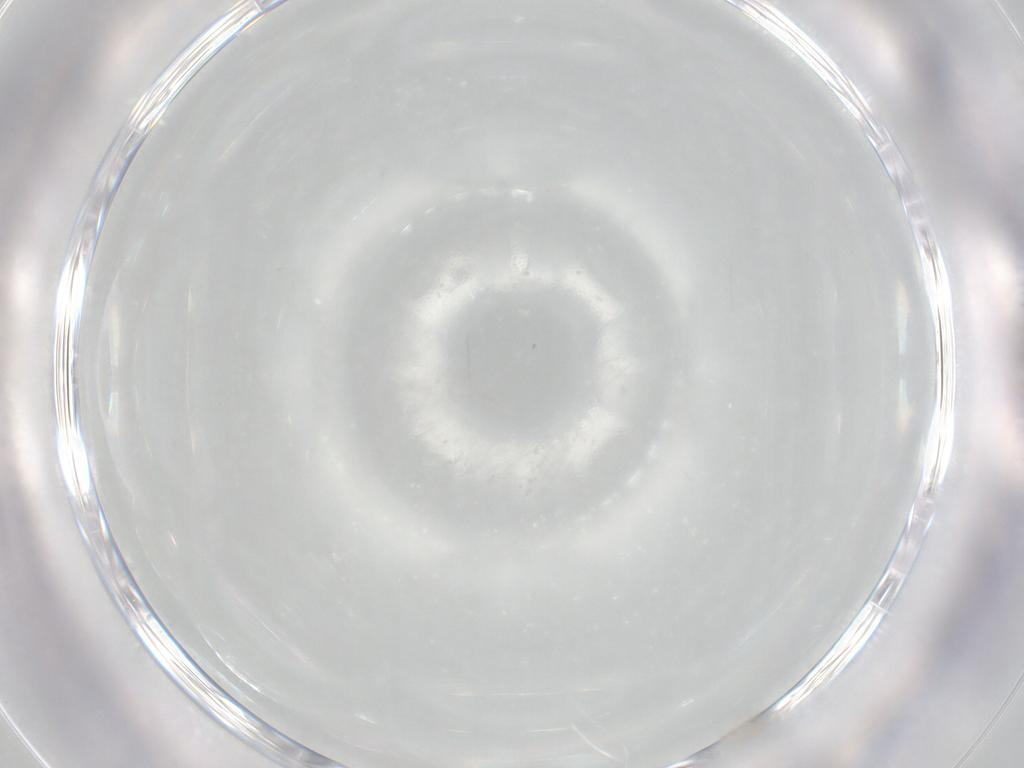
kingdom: Animalia
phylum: Arthropoda
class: Insecta
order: Diptera
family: Cecidomyiidae
